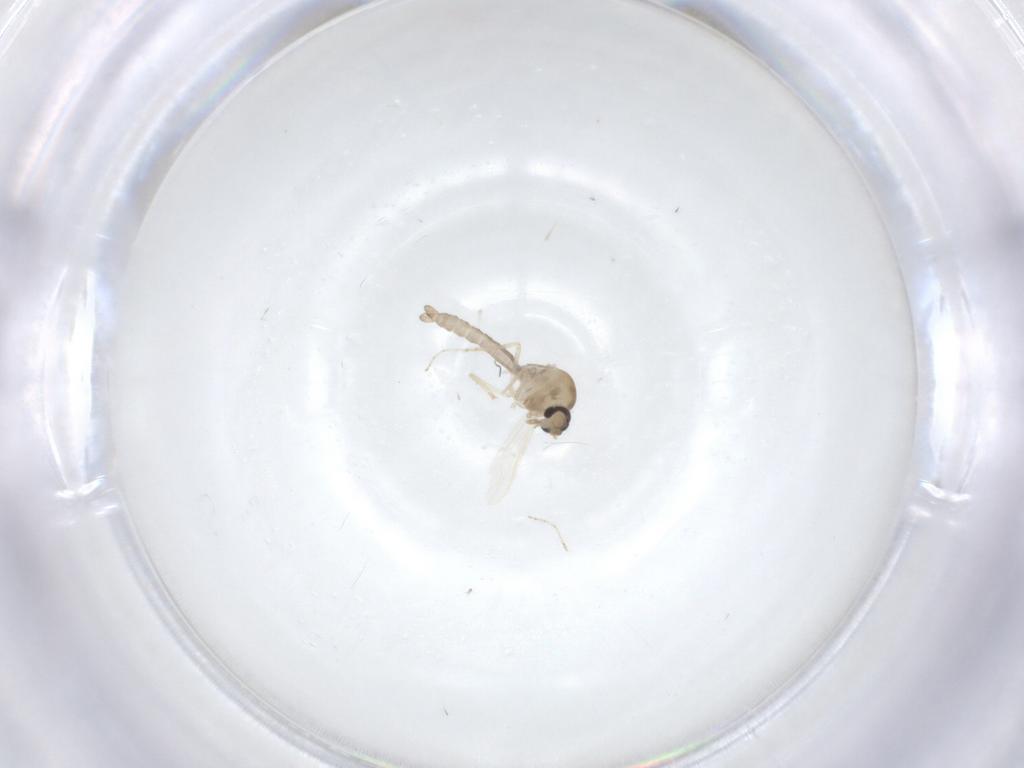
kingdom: Animalia
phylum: Arthropoda
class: Insecta
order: Diptera
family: Ceratopogonidae
